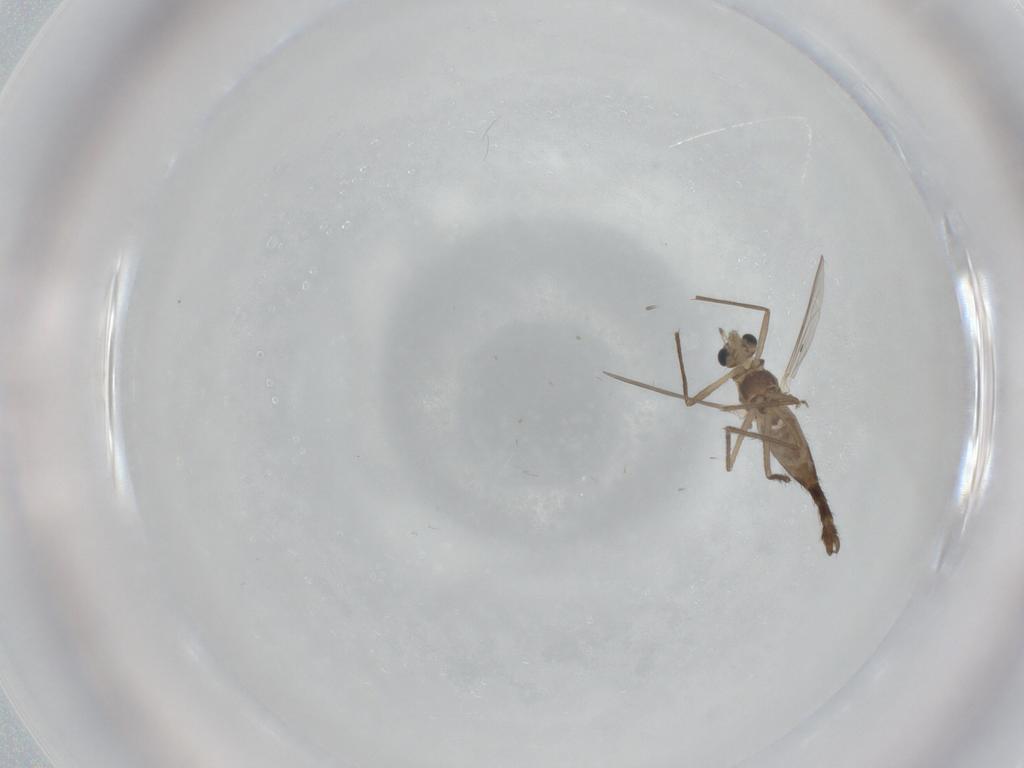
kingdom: Animalia
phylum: Arthropoda
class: Insecta
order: Diptera
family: Chironomidae
